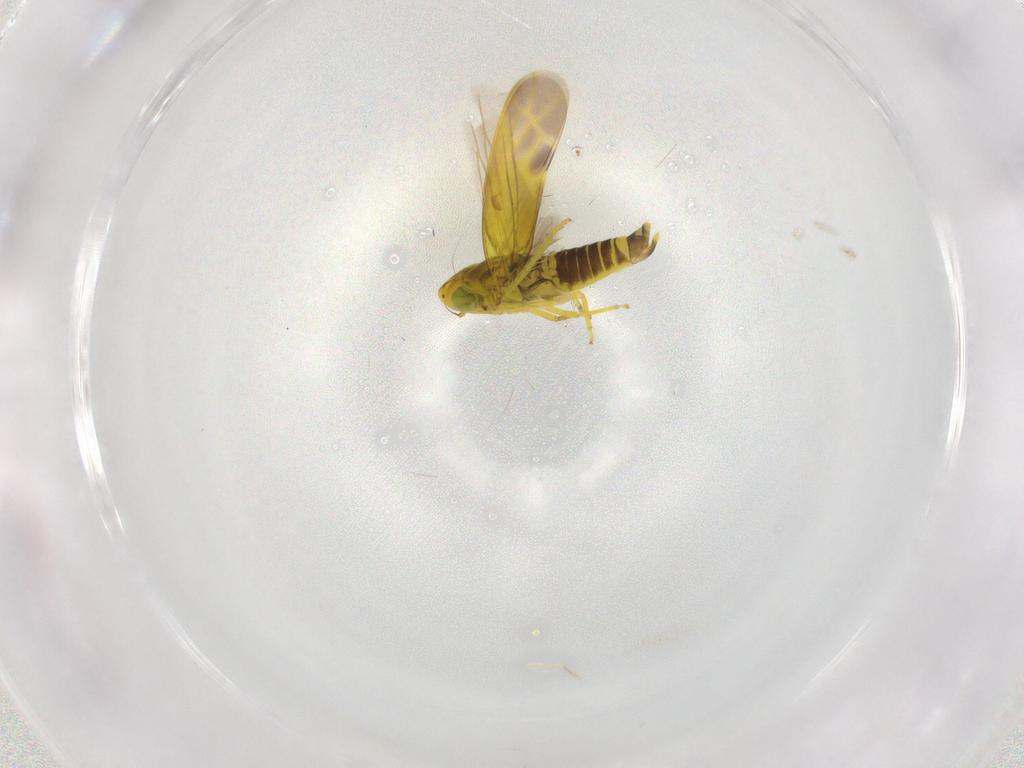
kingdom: Animalia
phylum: Arthropoda
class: Insecta
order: Hemiptera
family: Cicadellidae
